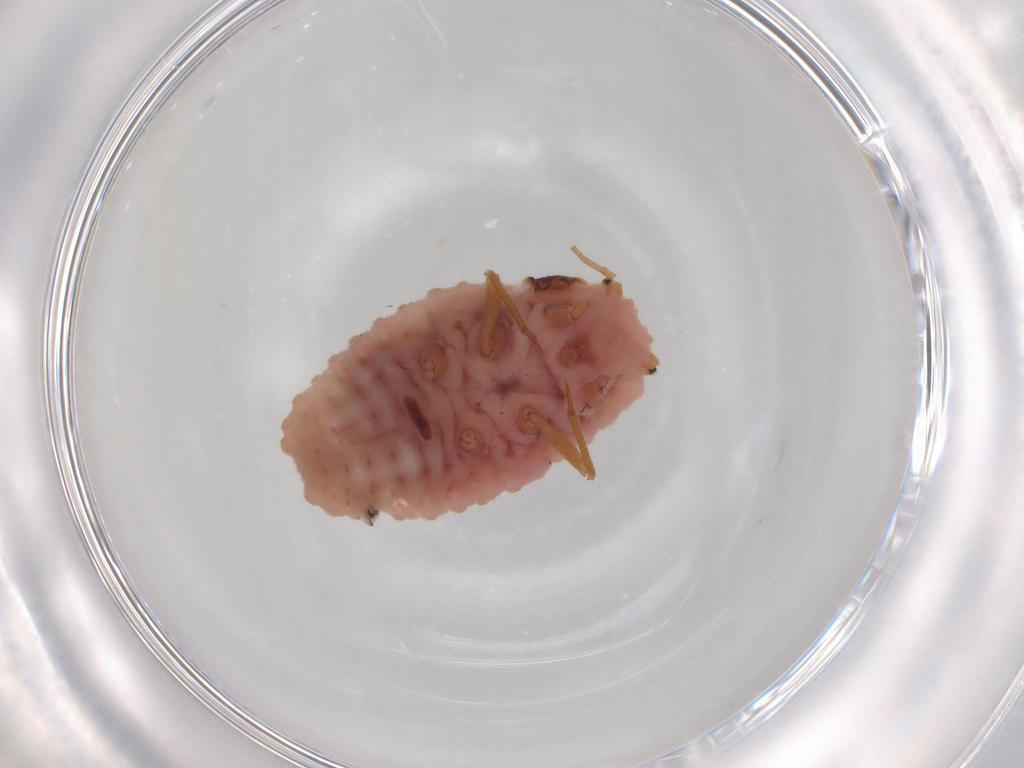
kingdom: Animalia
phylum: Arthropoda
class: Insecta
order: Hemiptera
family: Coccoidea_incertae_sedis
